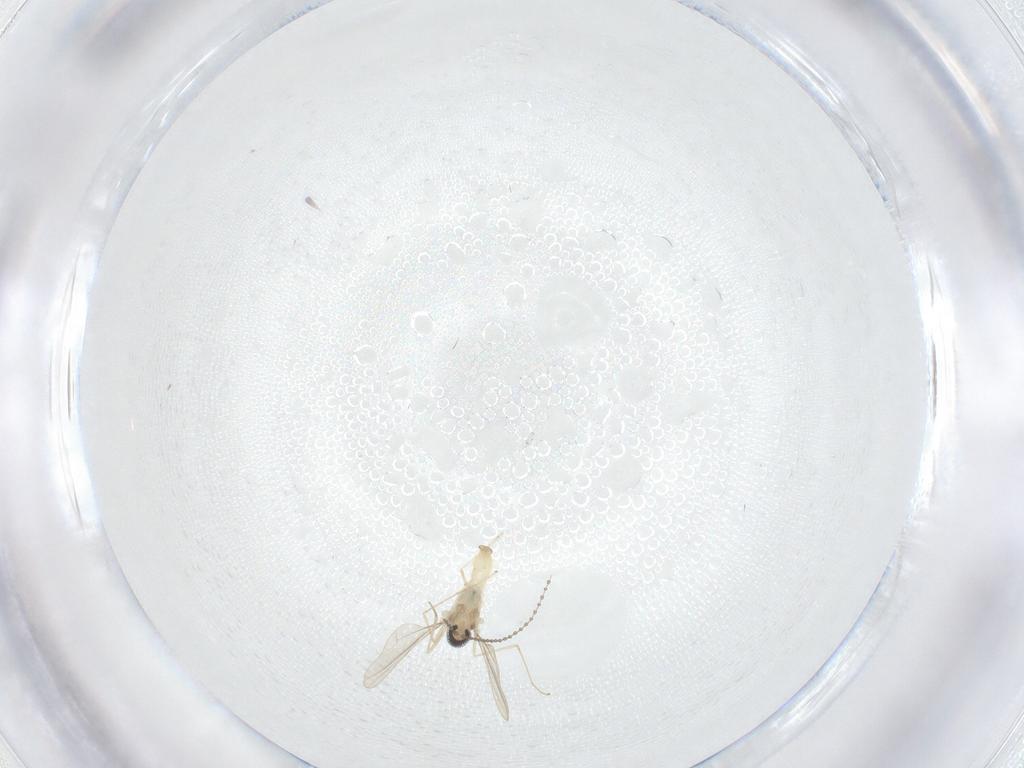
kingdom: Animalia
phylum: Arthropoda
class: Insecta
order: Diptera
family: Cecidomyiidae
